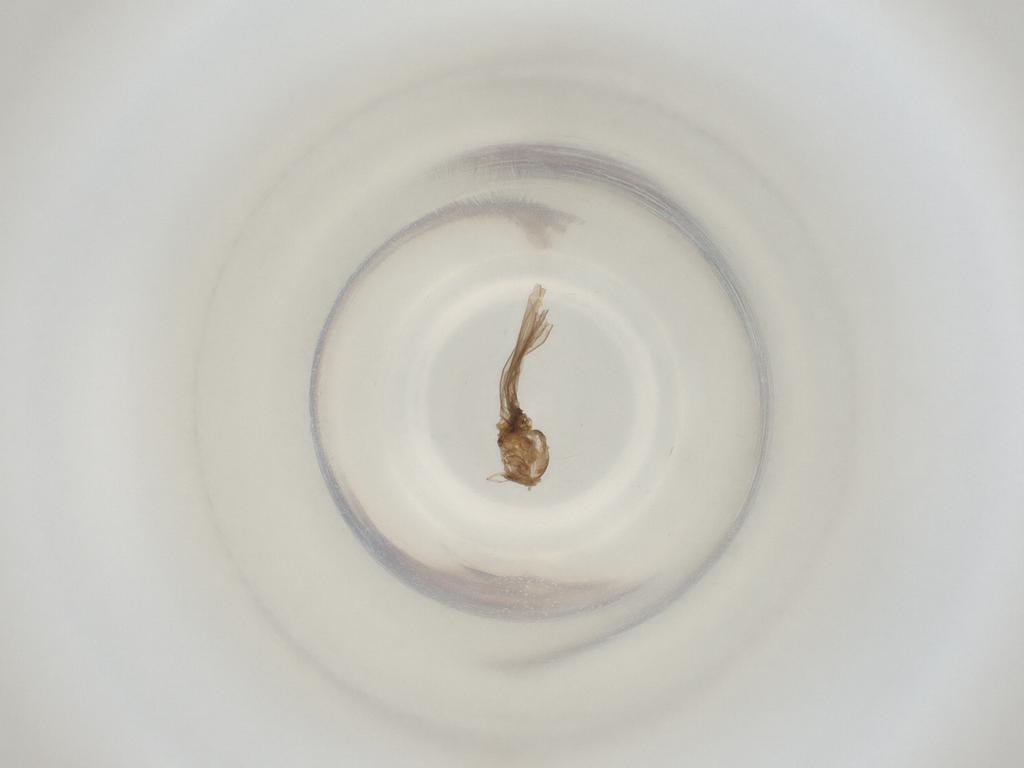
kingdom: Animalia
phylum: Arthropoda
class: Insecta
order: Diptera
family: Cecidomyiidae
